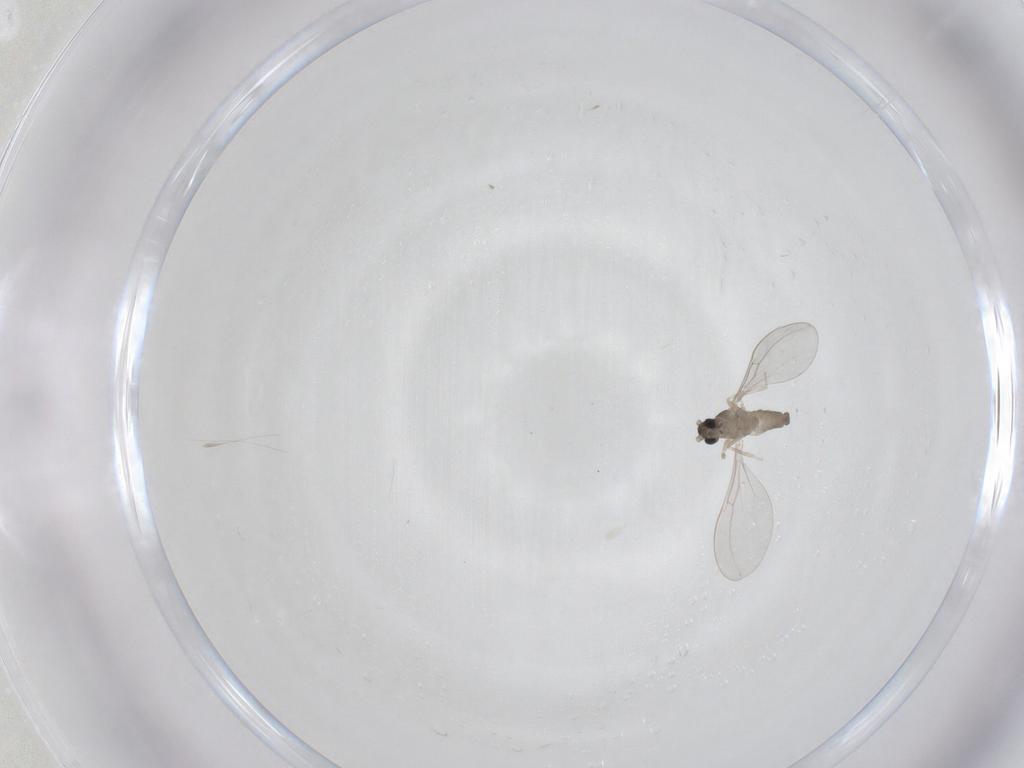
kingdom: Animalia
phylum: Arthropoda
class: Insecta
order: Diptera
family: Cecidomyiidae
